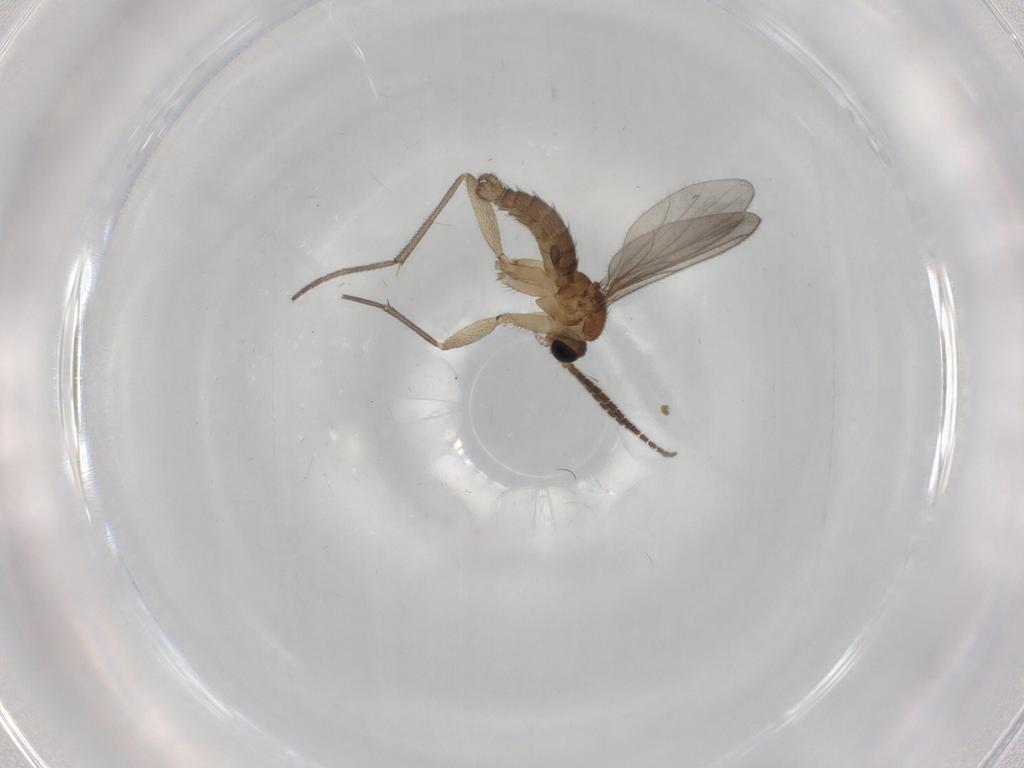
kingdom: Animalia
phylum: Arthropoda
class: Insecta
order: Diptera
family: Sciaridae
